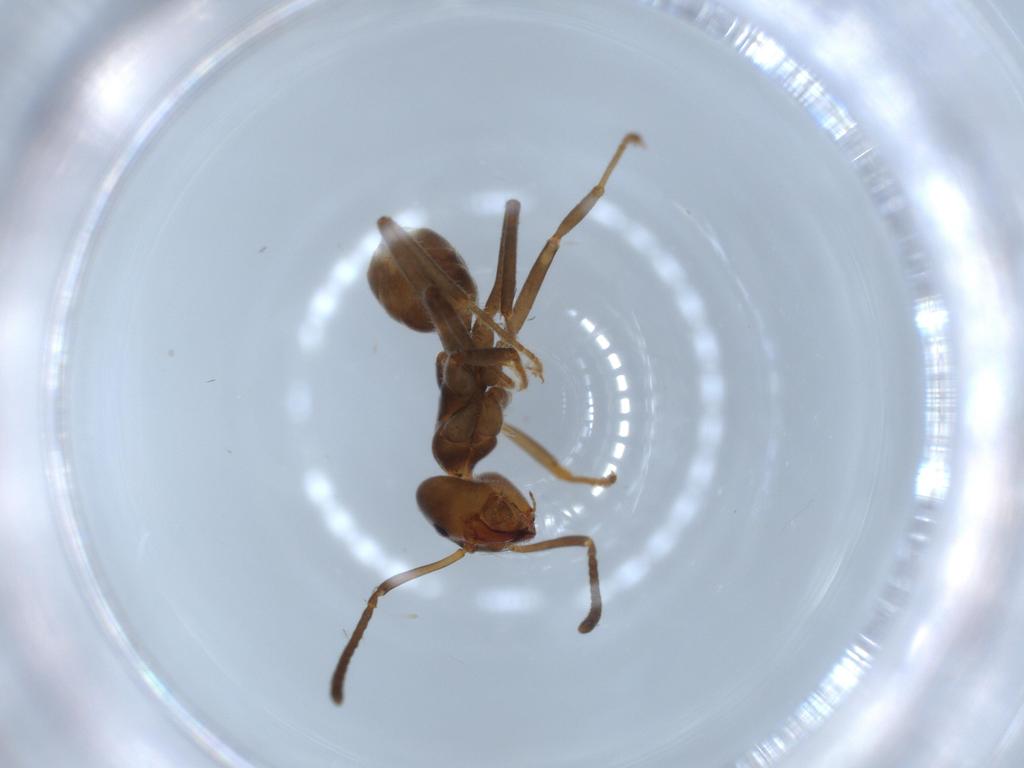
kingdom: Animalia
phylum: Arthropoda
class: Insecta
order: Hymenoptera
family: Formicidae
